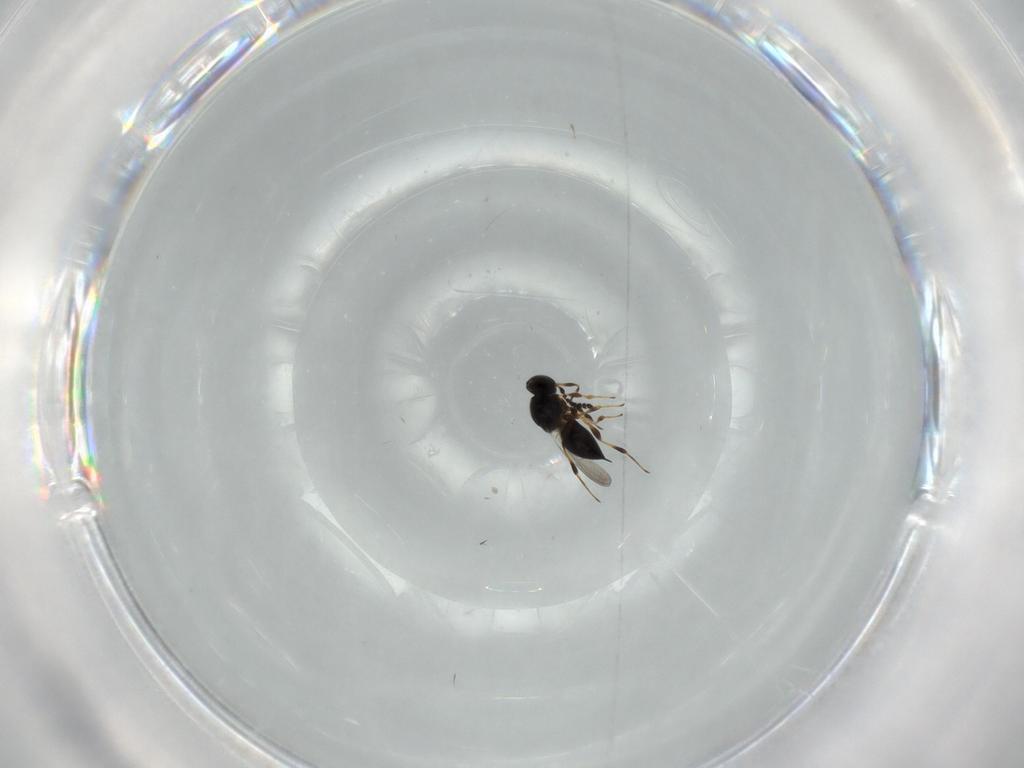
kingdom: Animalia
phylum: Arthropoda
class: Insecta
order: Hymenoptera
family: Platygastridae
